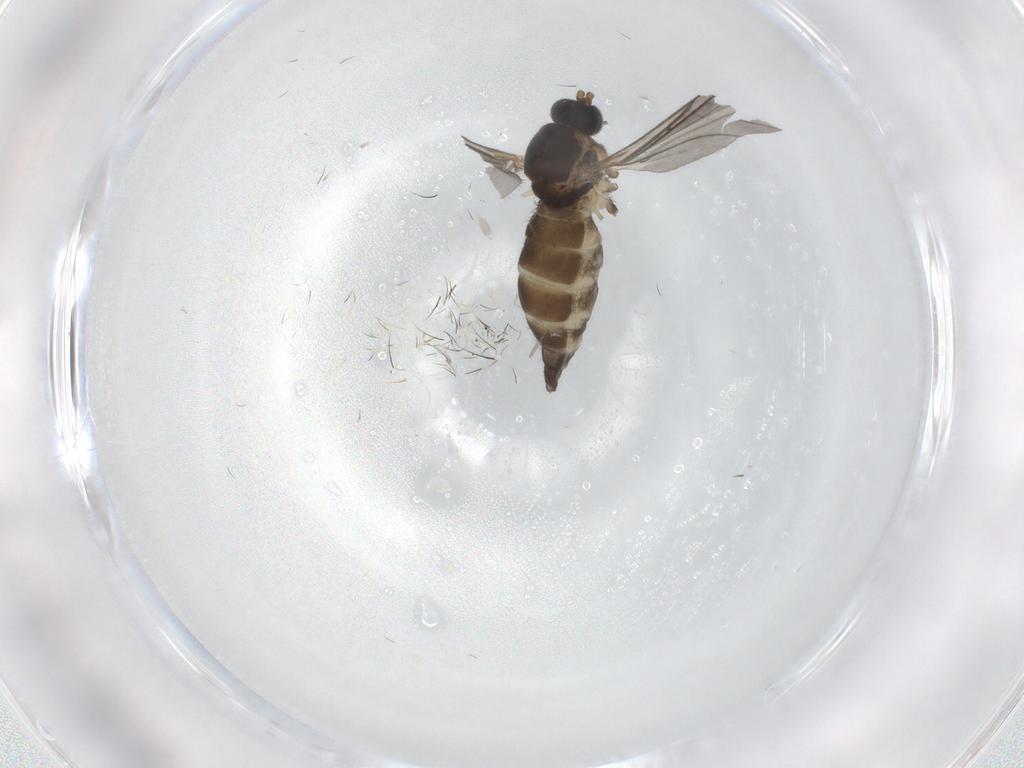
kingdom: Animalia
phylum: Arthropoda
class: Insecta
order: Diptera
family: Sciaridae
